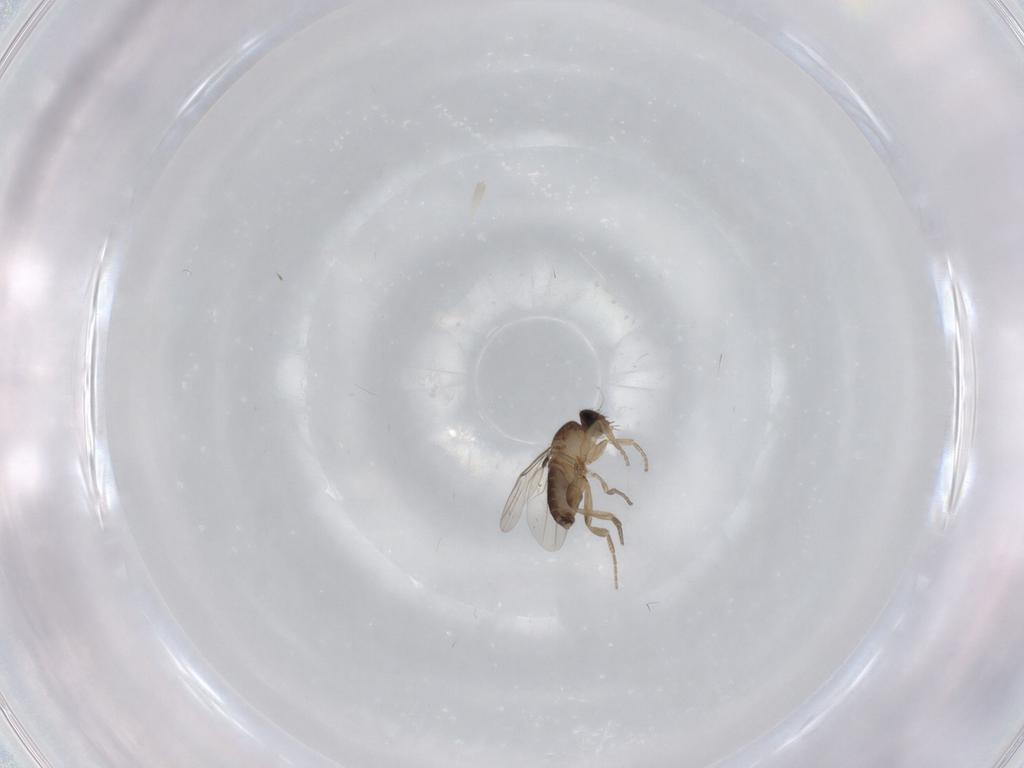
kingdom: Animalia
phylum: Arthropoda
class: Insecta
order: Diptera
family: Phoridae
